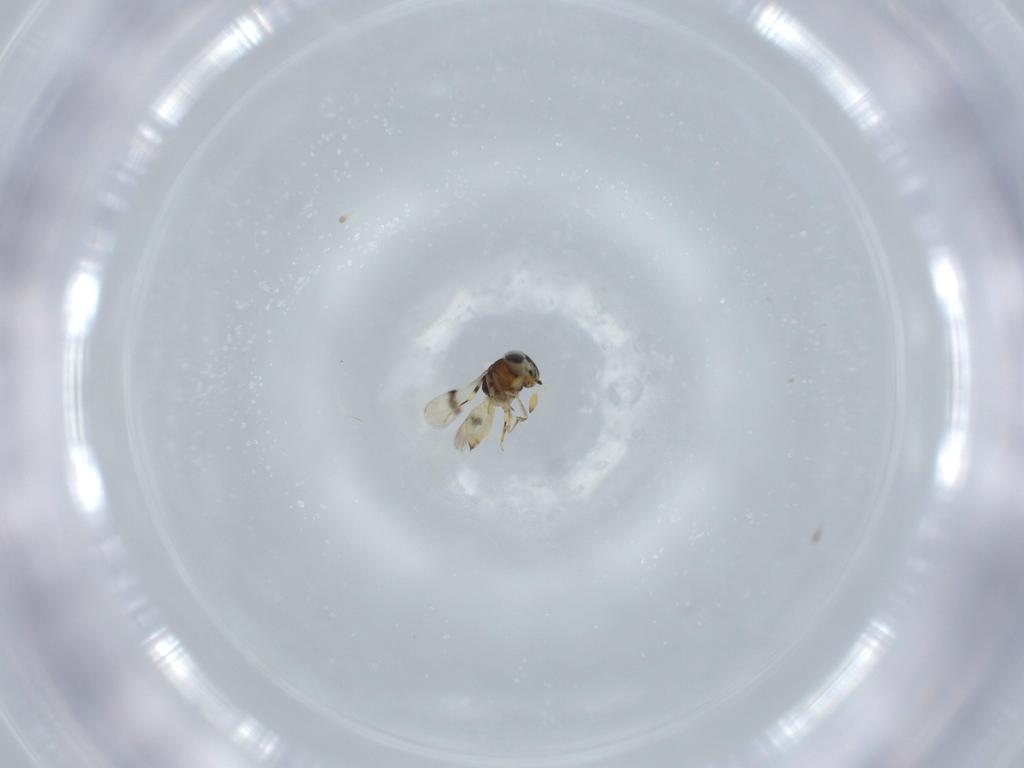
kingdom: Animalia
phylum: Arthropoda
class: Insecta
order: Hymenoptera
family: Scelionidae
